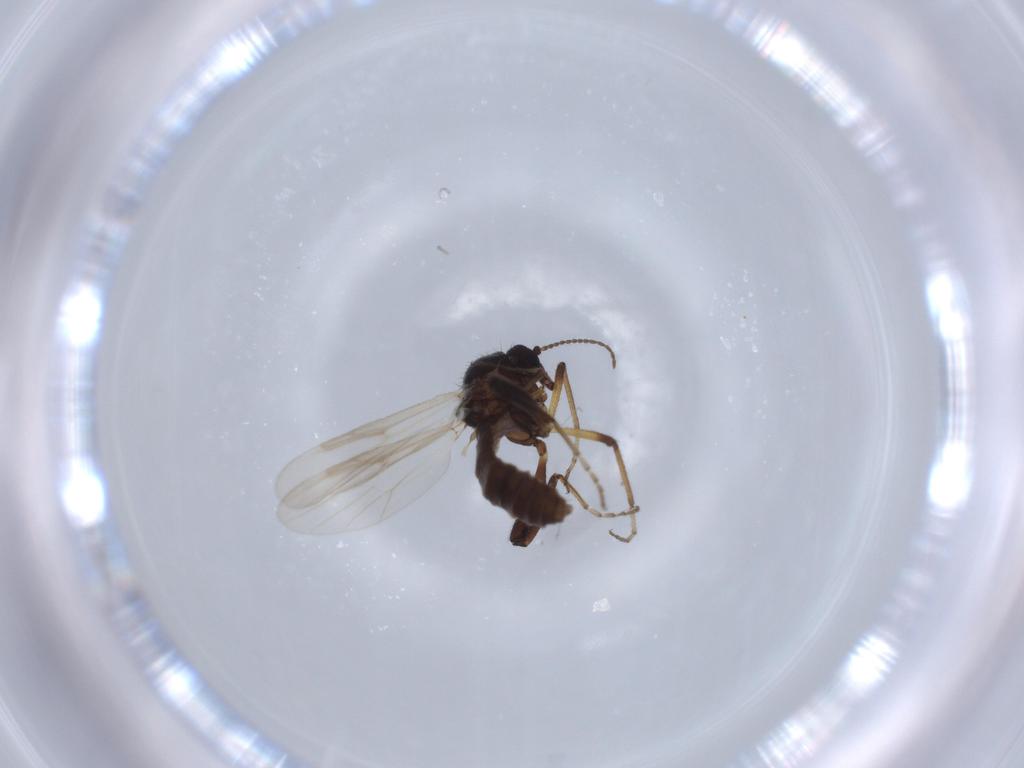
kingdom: Animalia
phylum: Arthropoda
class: Insecta
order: Diptera
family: Ceratopogonidae
